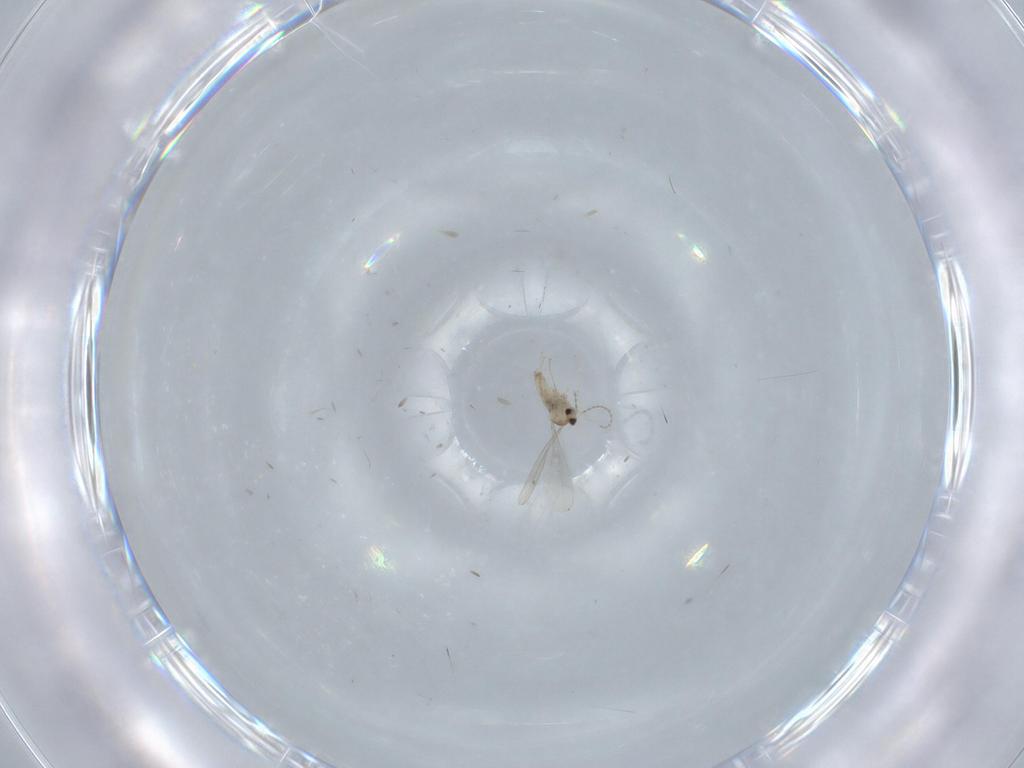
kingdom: Animalia
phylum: Arthropoda
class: Insecta
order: Diptera
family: Cecidomyiidae
